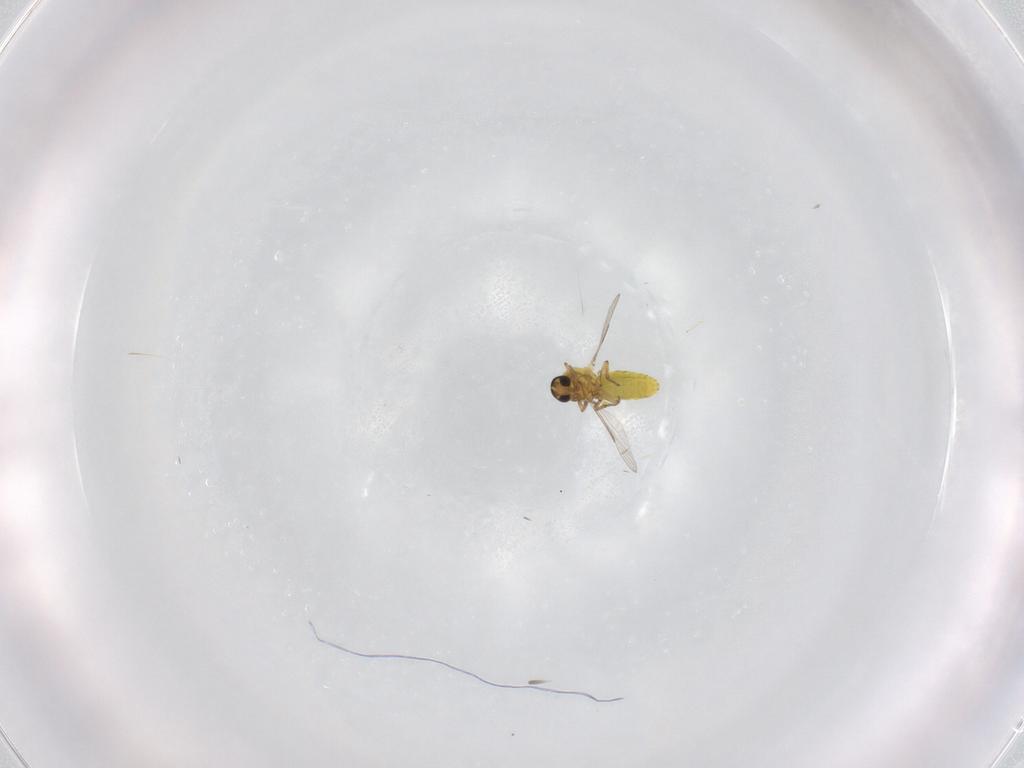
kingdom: Animalia
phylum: Arthropoda
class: Insecta
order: Diptera
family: Ceratopogonidae
